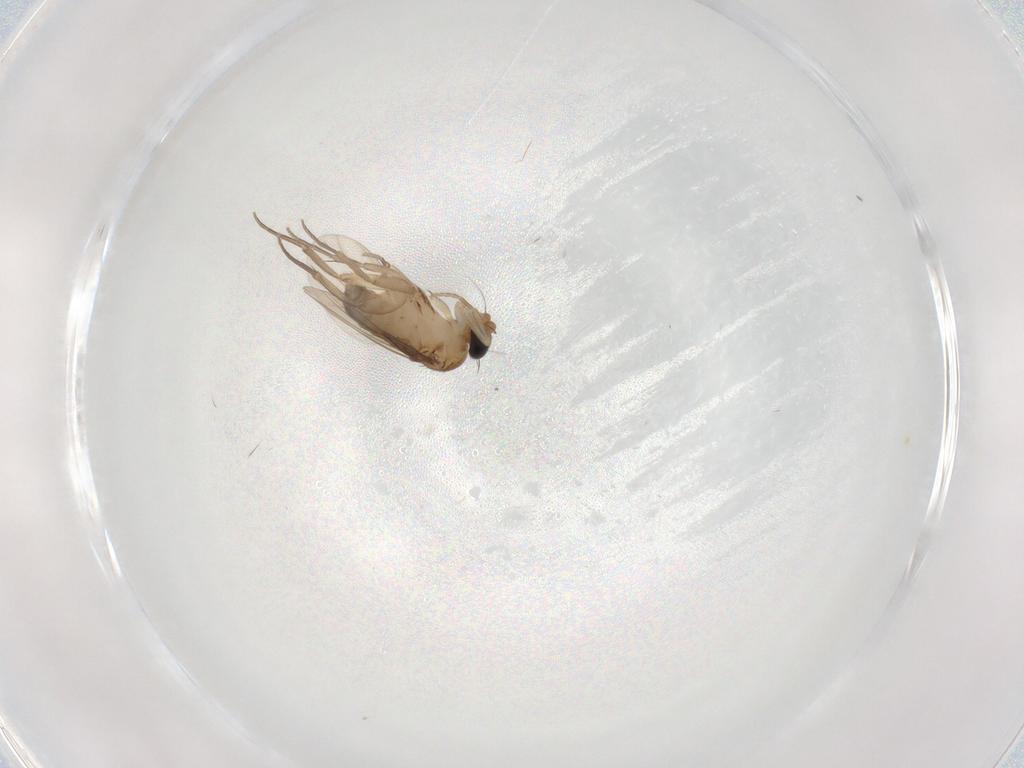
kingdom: Animalia
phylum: Arthropoda
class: Insecta
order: Diptera
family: Phoridae
